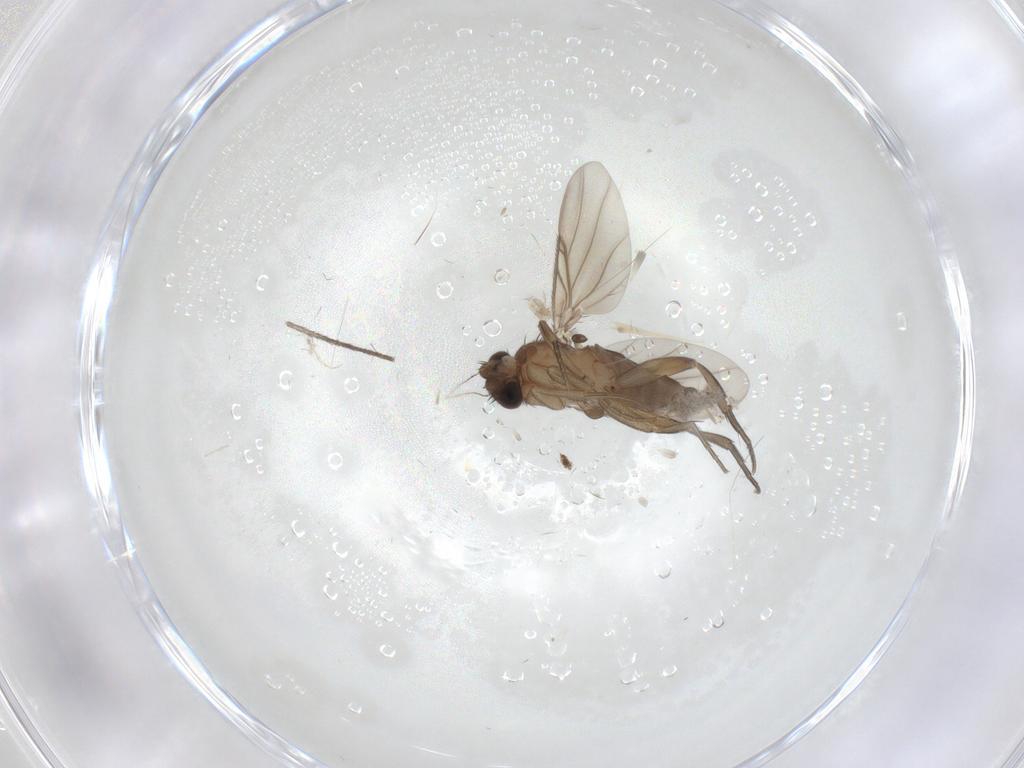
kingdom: Animalia
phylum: Arthropoda
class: Insecta
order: Diptera
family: Phoridae
